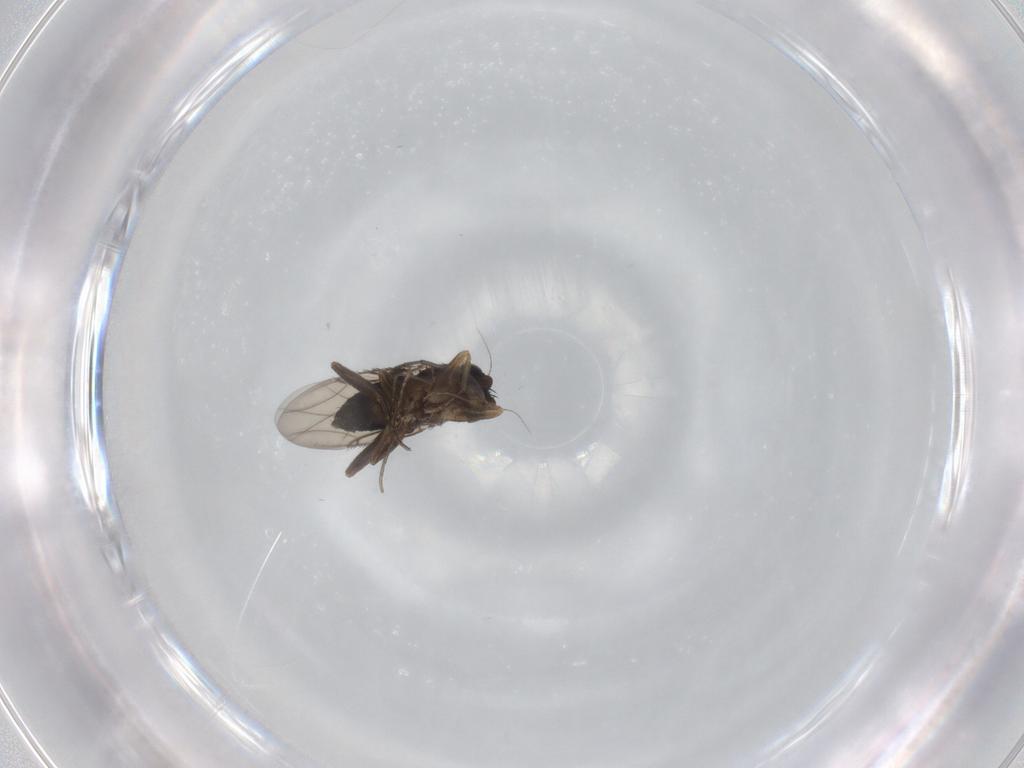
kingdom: Animalia
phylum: Arthropoda
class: Insecta
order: Diptera
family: Phoridae
